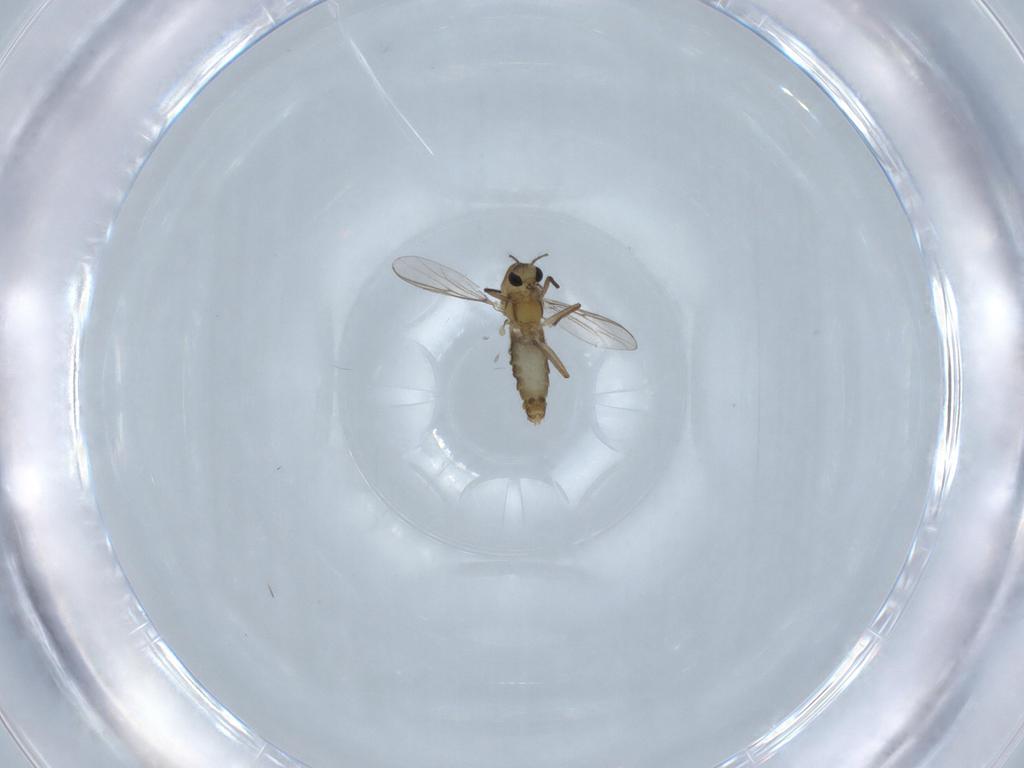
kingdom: Animalia
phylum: Arthropoda
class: Insecta
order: Diptera
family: Chironomidae
